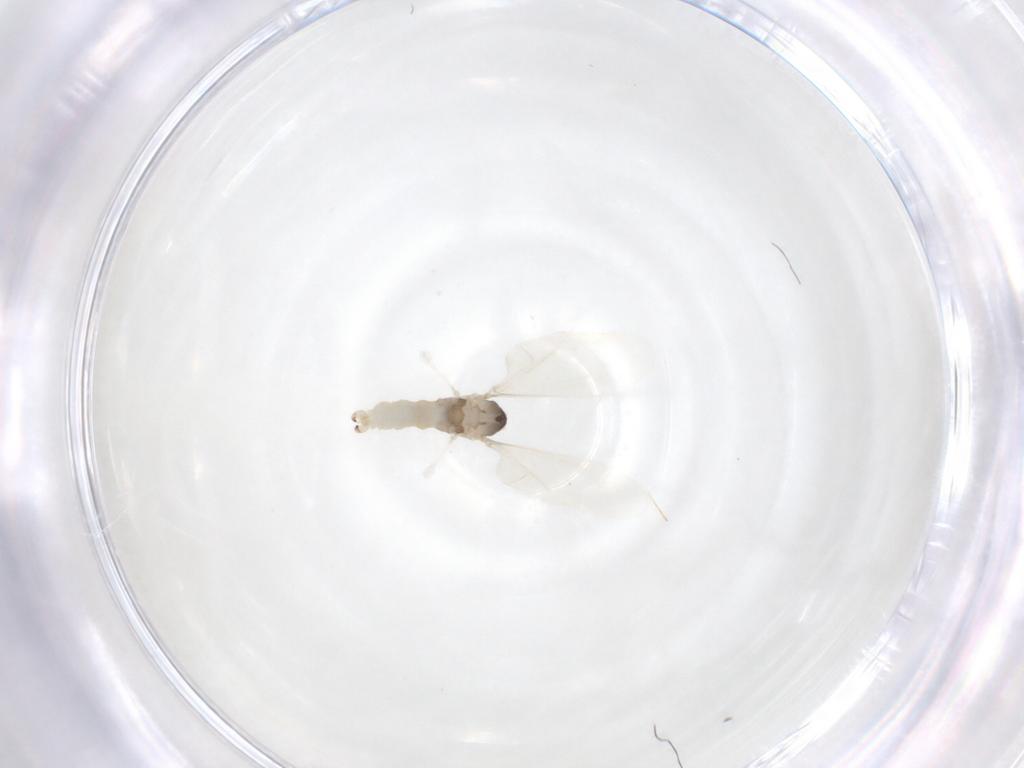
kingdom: Animalia
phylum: Arthropoda
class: Insecta
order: Diptera
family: Cecidomyiidae
